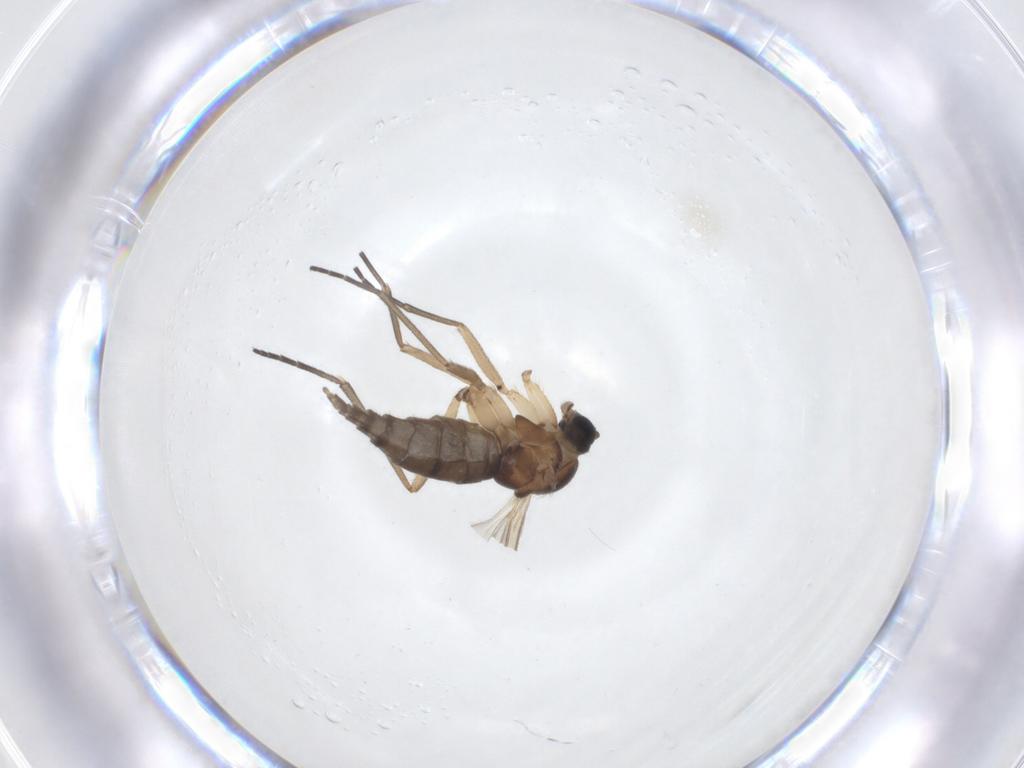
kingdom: Animalia
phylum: Arthropoda
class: Insecta
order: Diptera
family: Sciaridae
